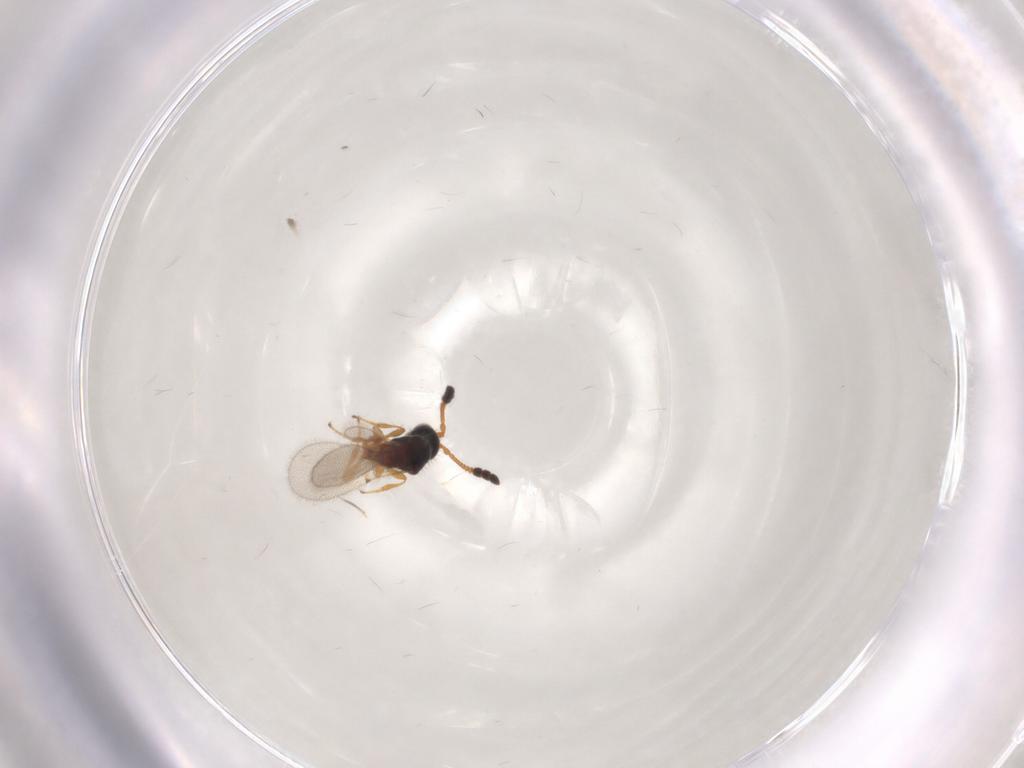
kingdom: Animalia
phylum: Arthropoda
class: Insecta
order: Hymenoptera
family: Diapriidae
